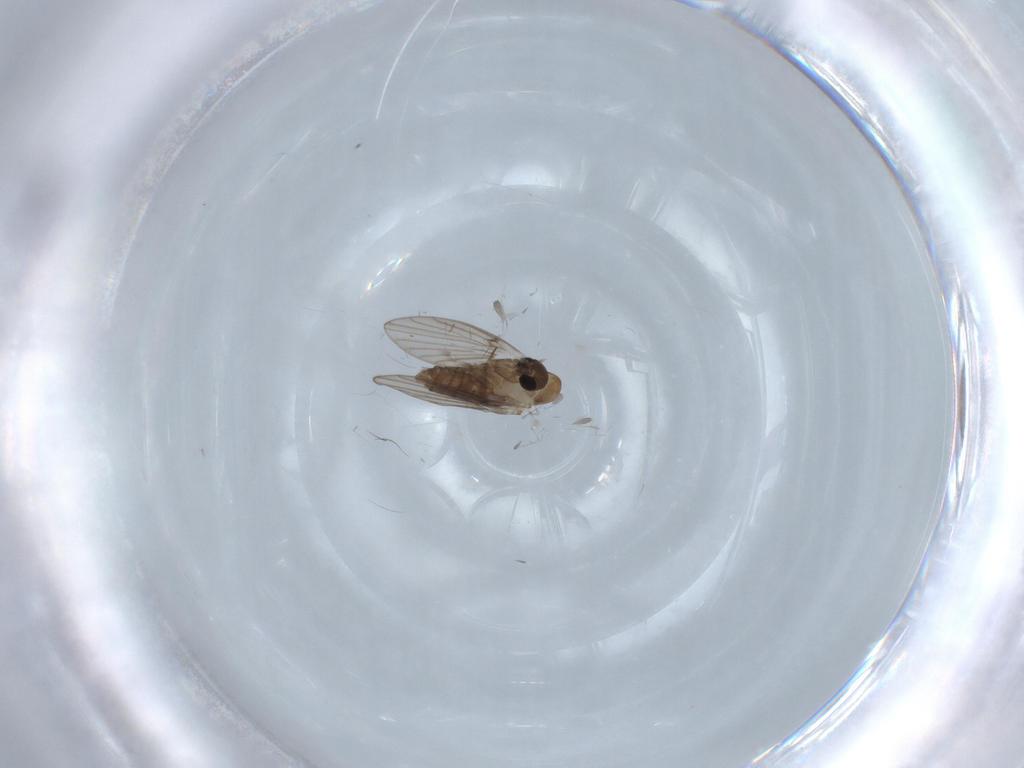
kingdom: Animalia
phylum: Arthropoda
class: Insecta
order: Diptera
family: Psychodidae
